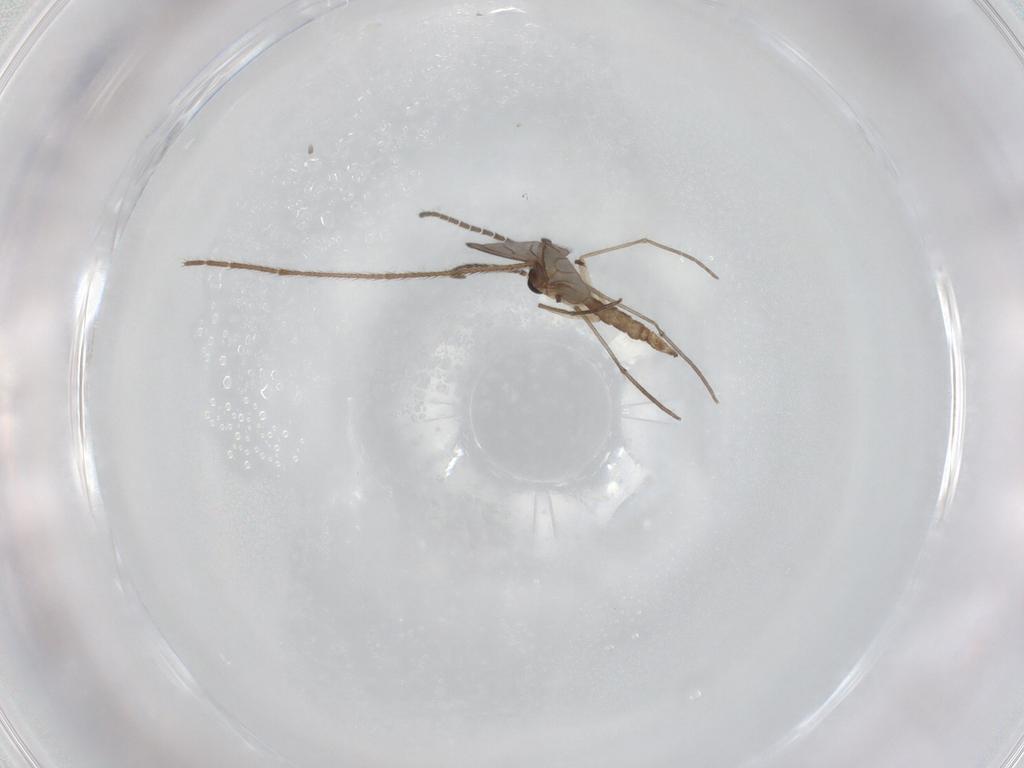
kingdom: Animalia
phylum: Arthropoda
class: Insecta
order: Diptera
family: Sciaridae
